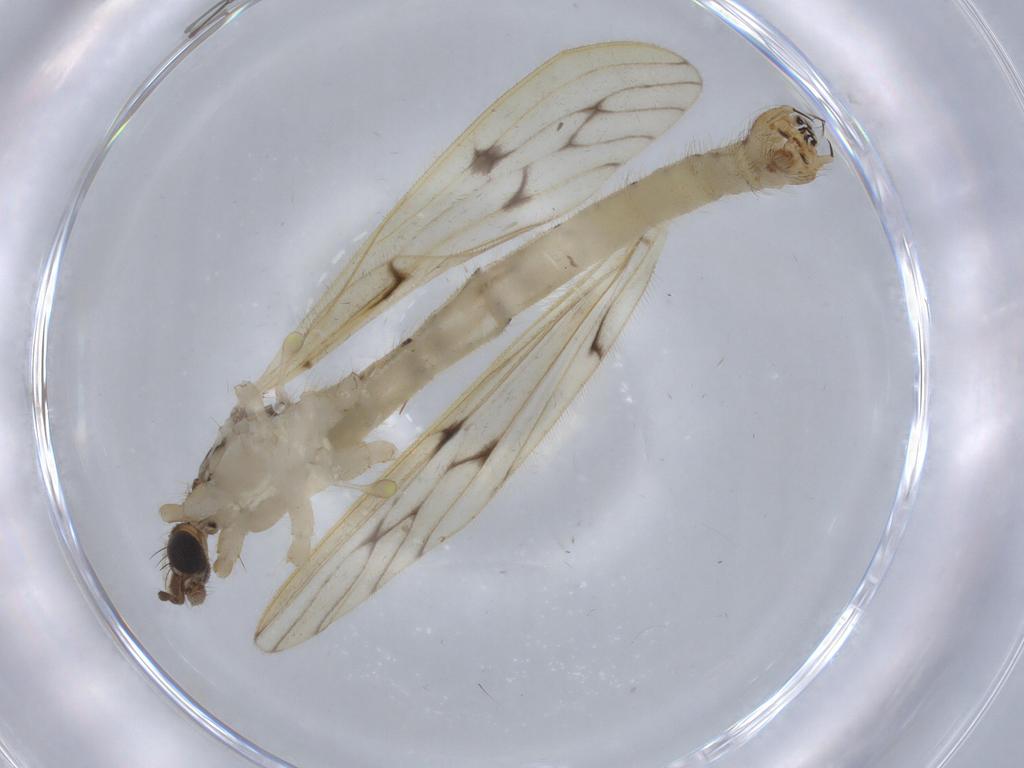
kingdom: Animalia
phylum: Arthropoda
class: Insecta
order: Diptera
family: Phoridae
